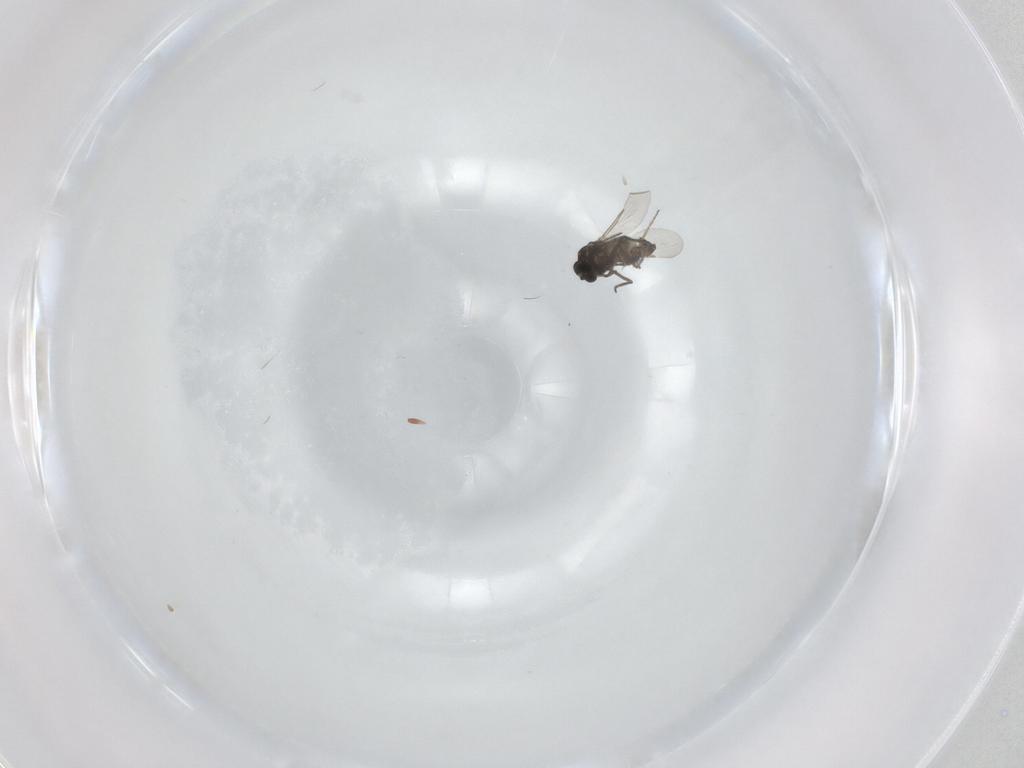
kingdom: Animalia
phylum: Arthropoda
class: Insecta
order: Diptera
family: Ceratopogonidae
